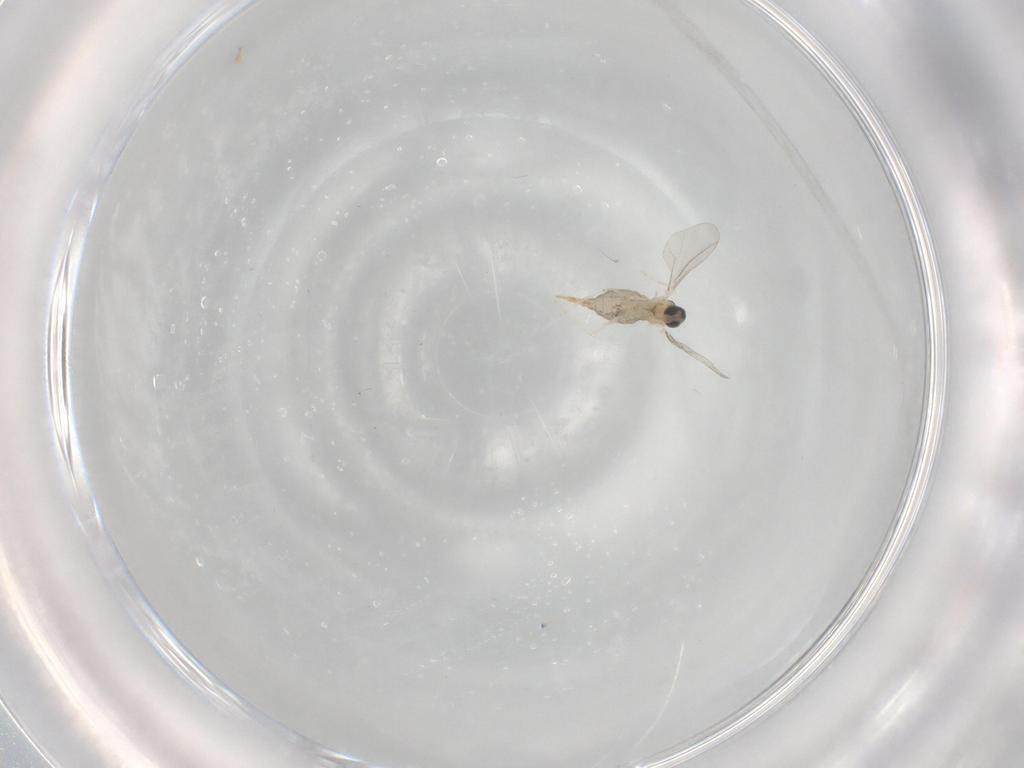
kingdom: Animalia
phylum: Arthropoda
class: Insecta
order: Diptera
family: Cecidomyiidae
